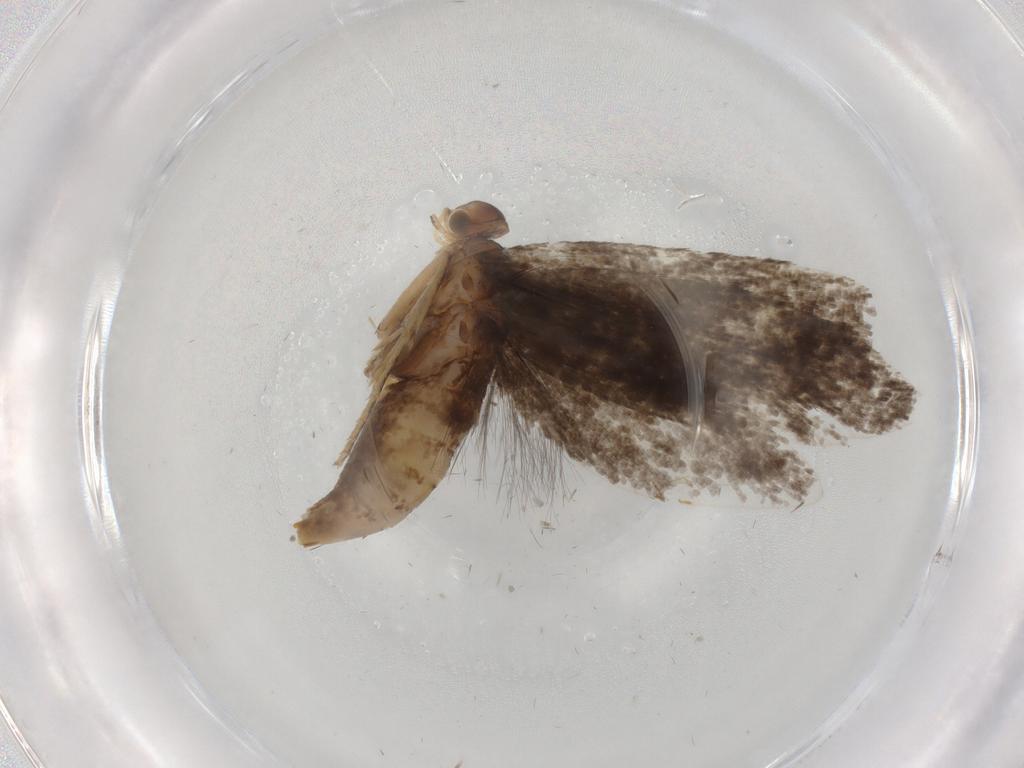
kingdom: Animalia
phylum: Arthropoda
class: Insecta
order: Lepidoptera
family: Tineidae
